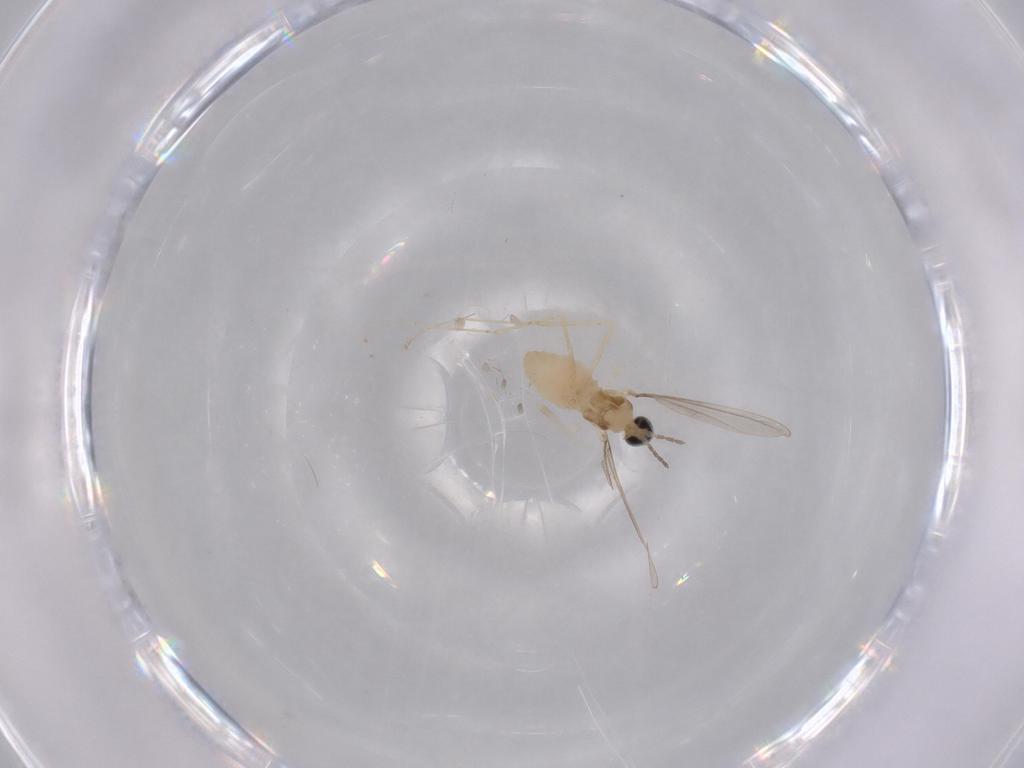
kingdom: Animalia
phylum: Arthropoda
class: Insecta
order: Diptera
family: Cecidomyiidae
